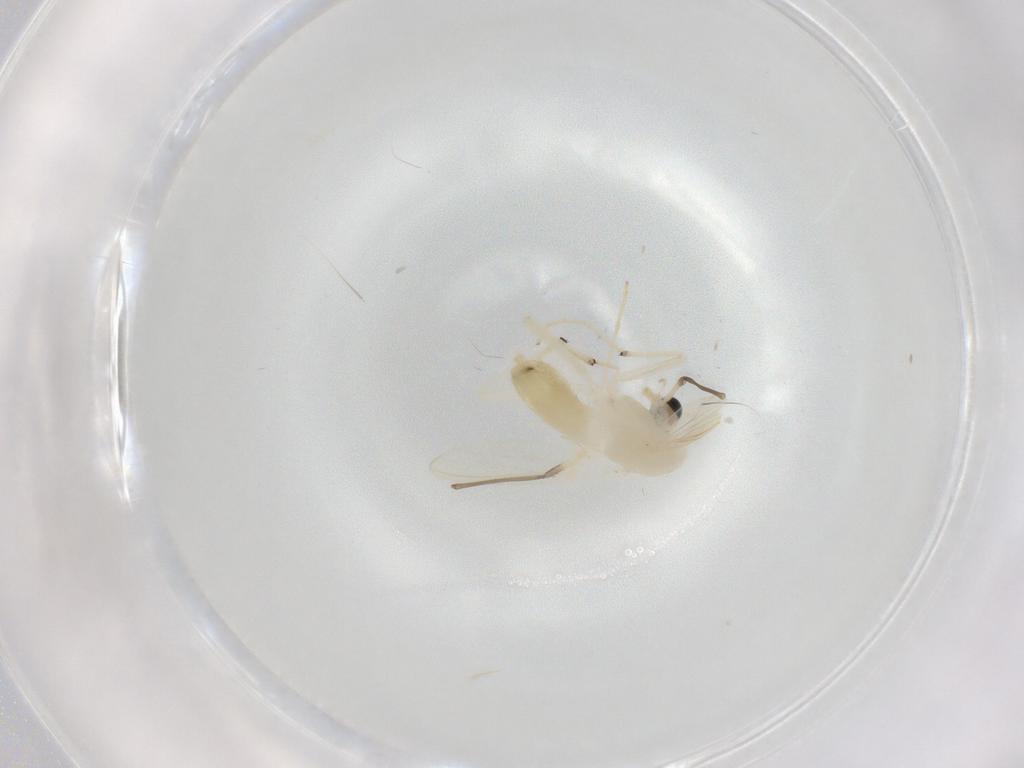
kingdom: Animalia
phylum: Arthropoda
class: Insecta
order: Diptera
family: Chironomidae
